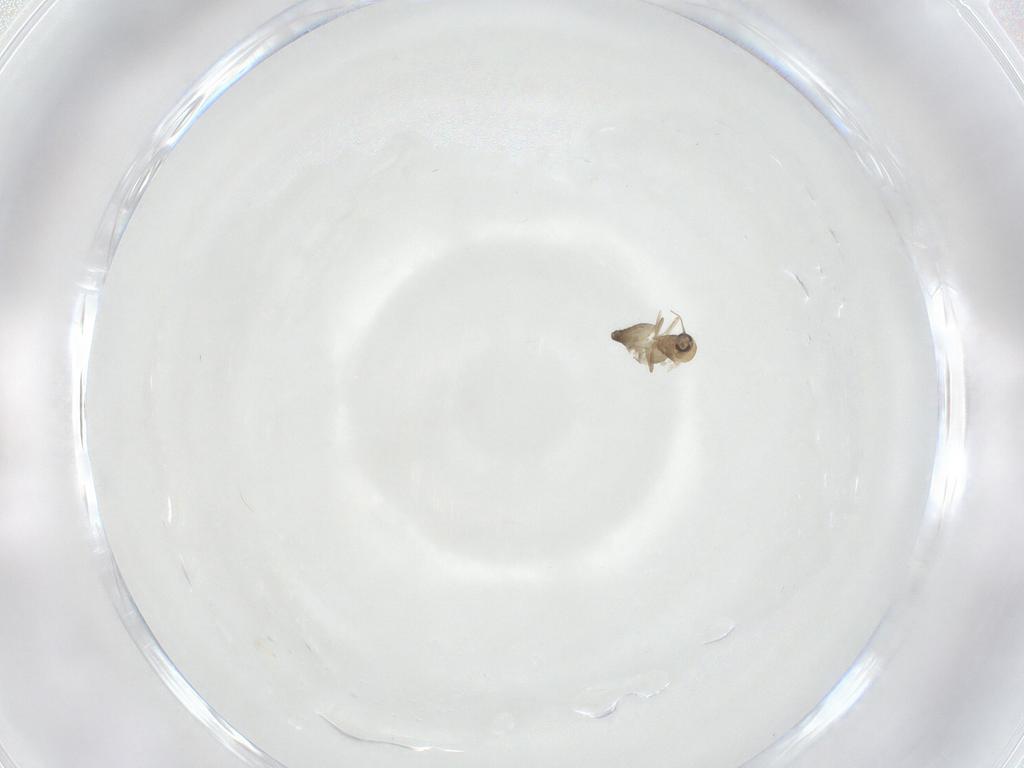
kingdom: Animalia
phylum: Arthropoda
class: Insecta
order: Diptera
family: Ceratopogonidae
